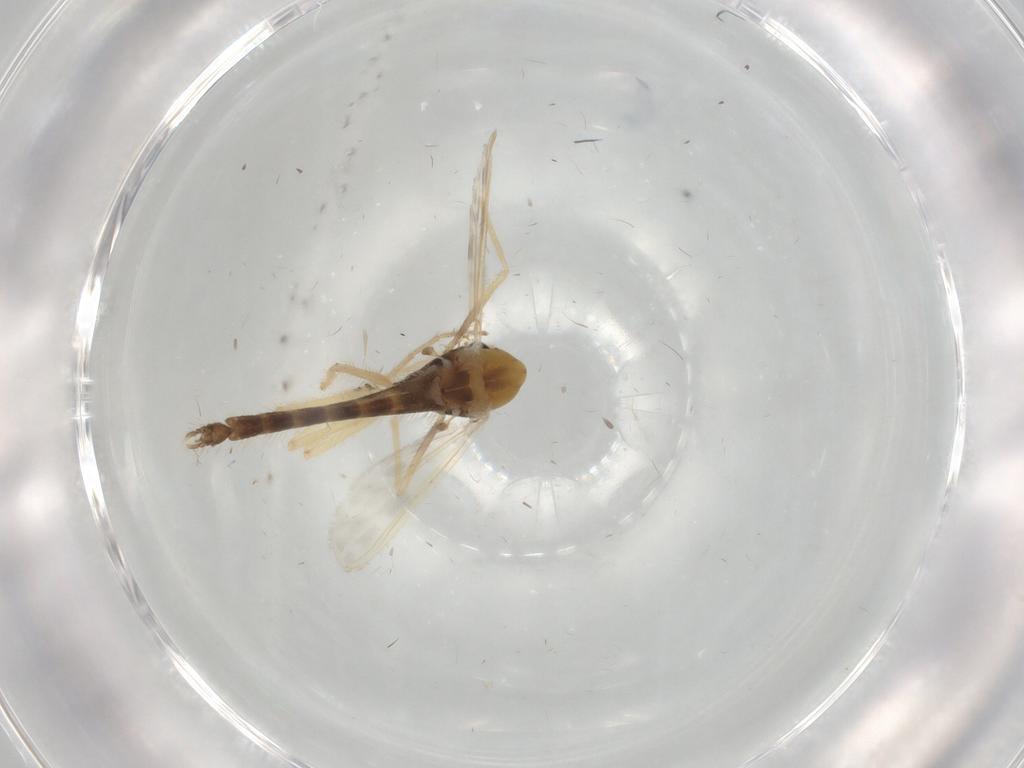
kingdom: Animalia
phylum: Arthropoda
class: Insecta
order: Diptera
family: Chironomidae
